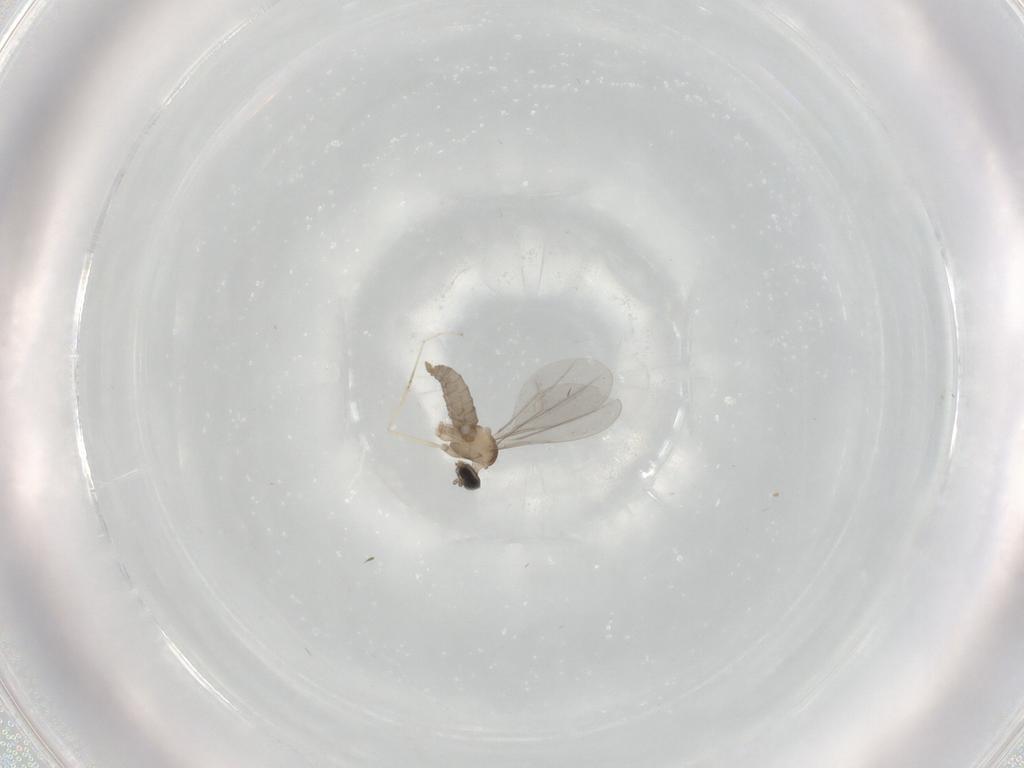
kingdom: Animalia
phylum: Arthropoda
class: Insecta
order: Diptera
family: Cecidomyiidae
